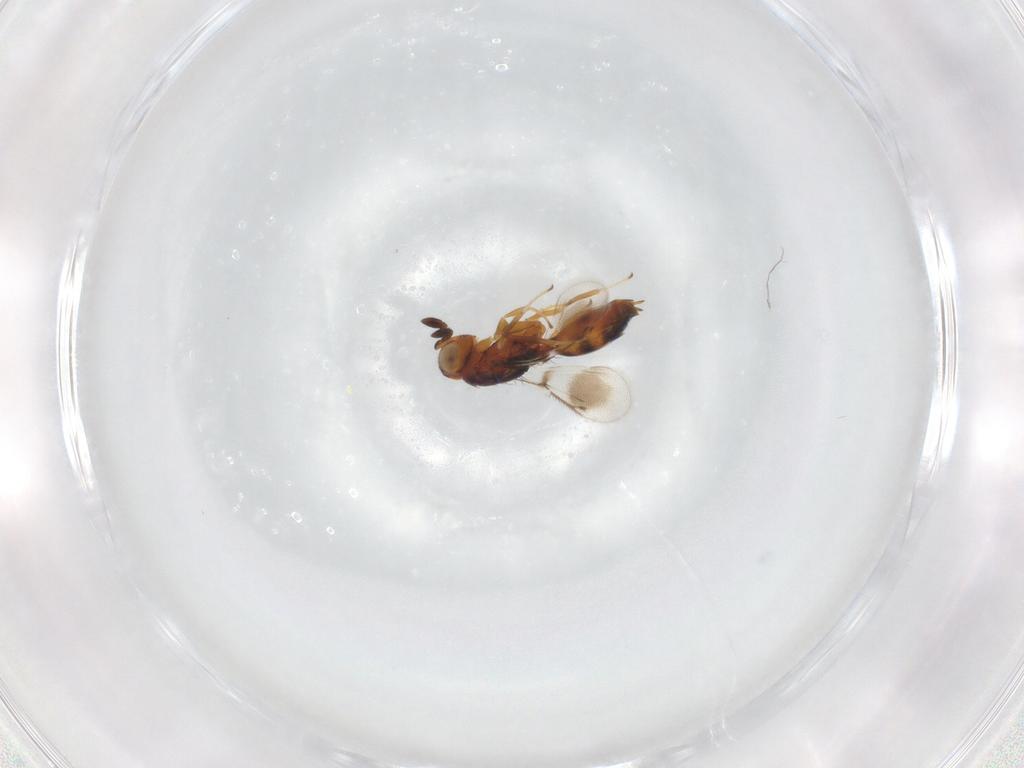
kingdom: Animalia
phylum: Arthropoda
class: Insecta
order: Hymenoptera
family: Moranilidae
